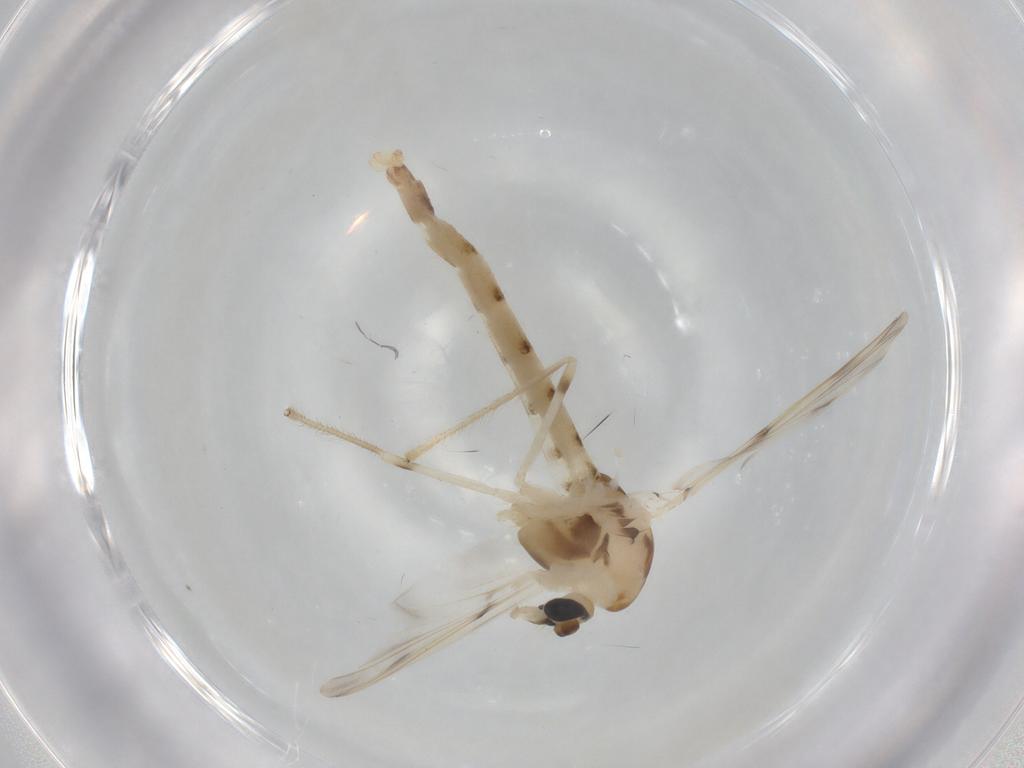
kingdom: Animalia
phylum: Arthropoda
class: Insecta
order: Diptera
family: Chironomidae
